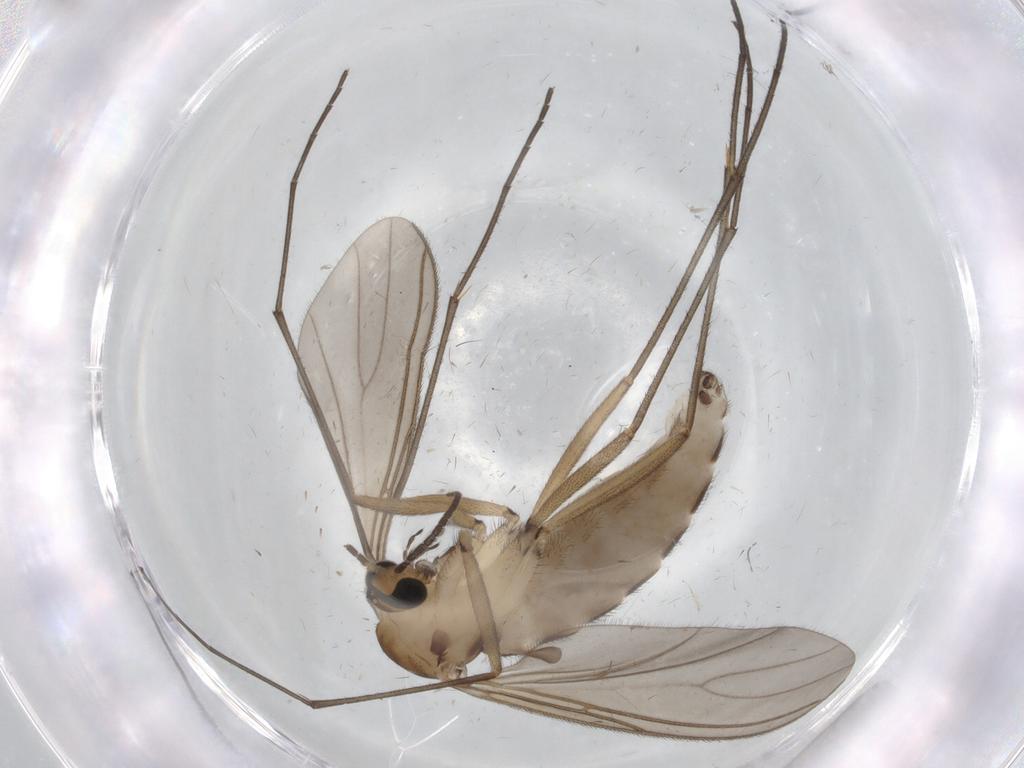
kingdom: Animalia
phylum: Arthropoda
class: Insecta
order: Diptera
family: Sciaridae
